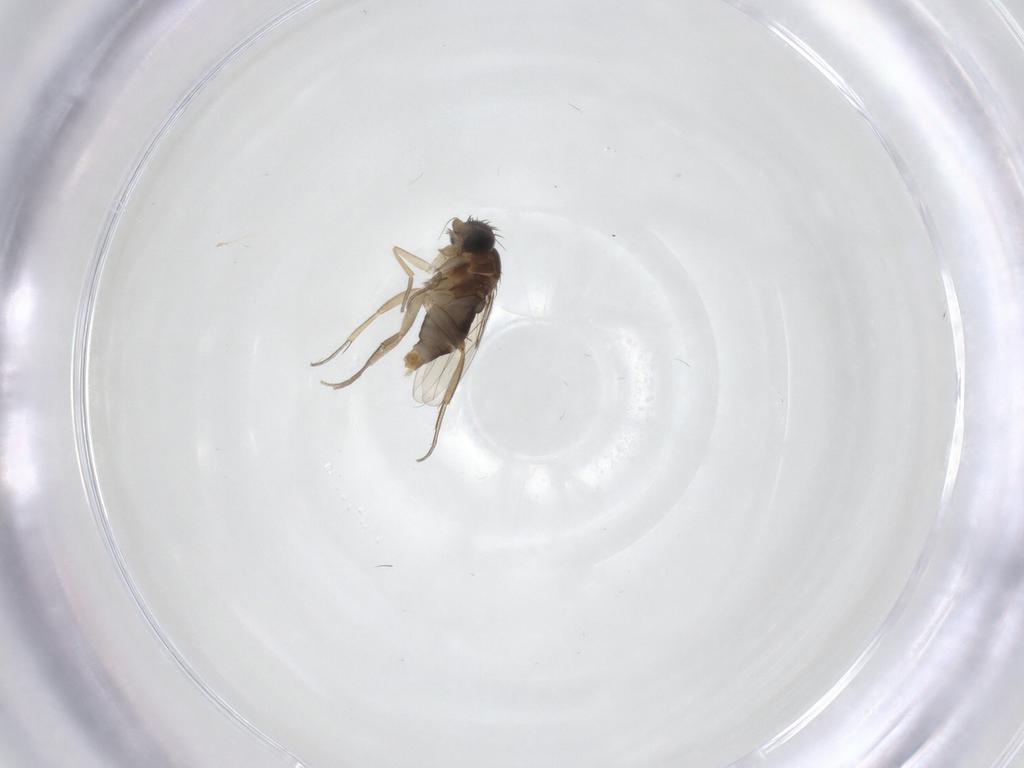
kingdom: Animalia
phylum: Arthropoda
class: Insecta
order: Diptera
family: Phoridae
